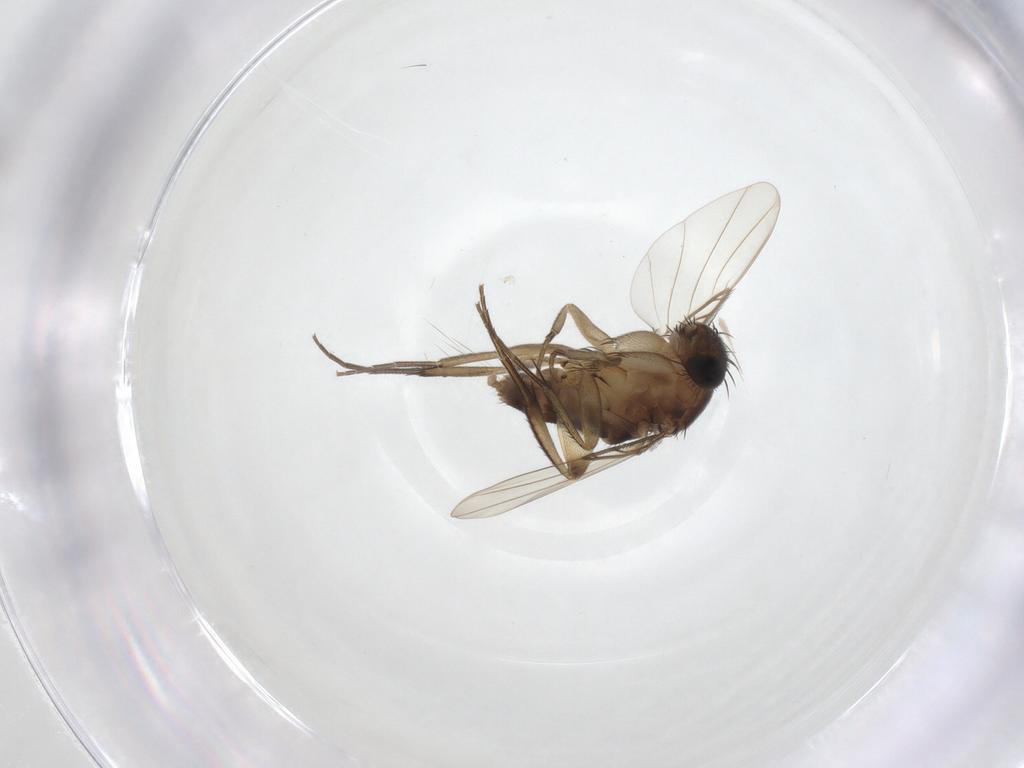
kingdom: Animalia
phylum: Arthropoda
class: Insecta
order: Diptera
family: Phoridae
